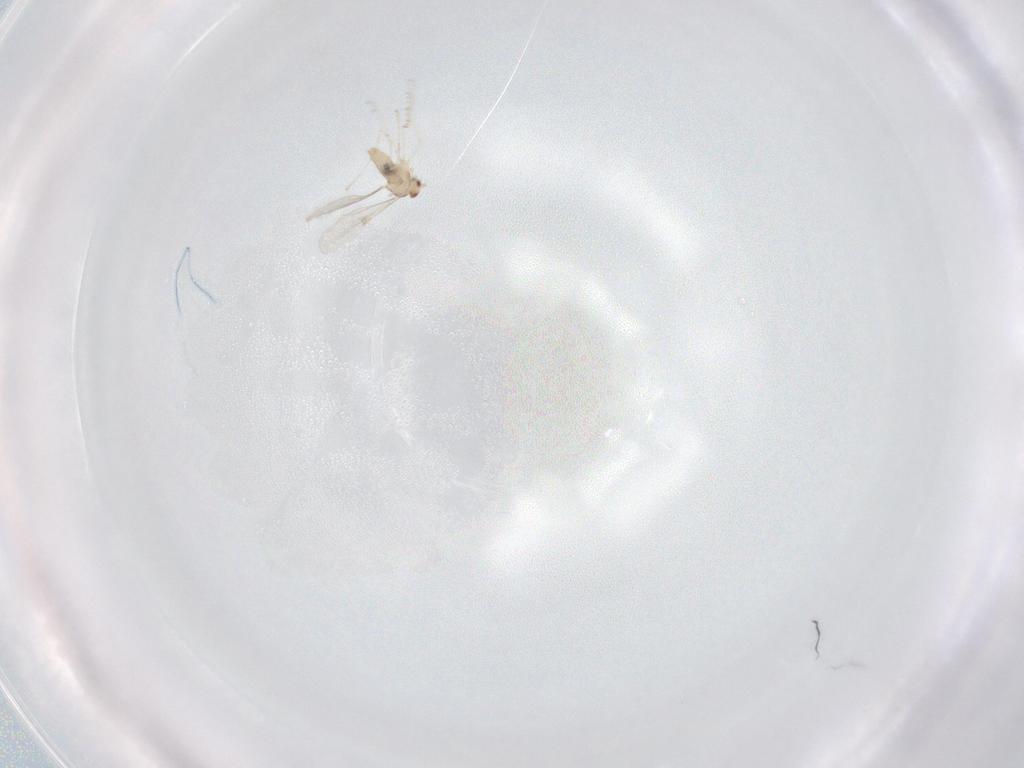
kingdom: Animalia
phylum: Arthropoda
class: Insecta
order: Diptera
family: Cecidomyiidae
